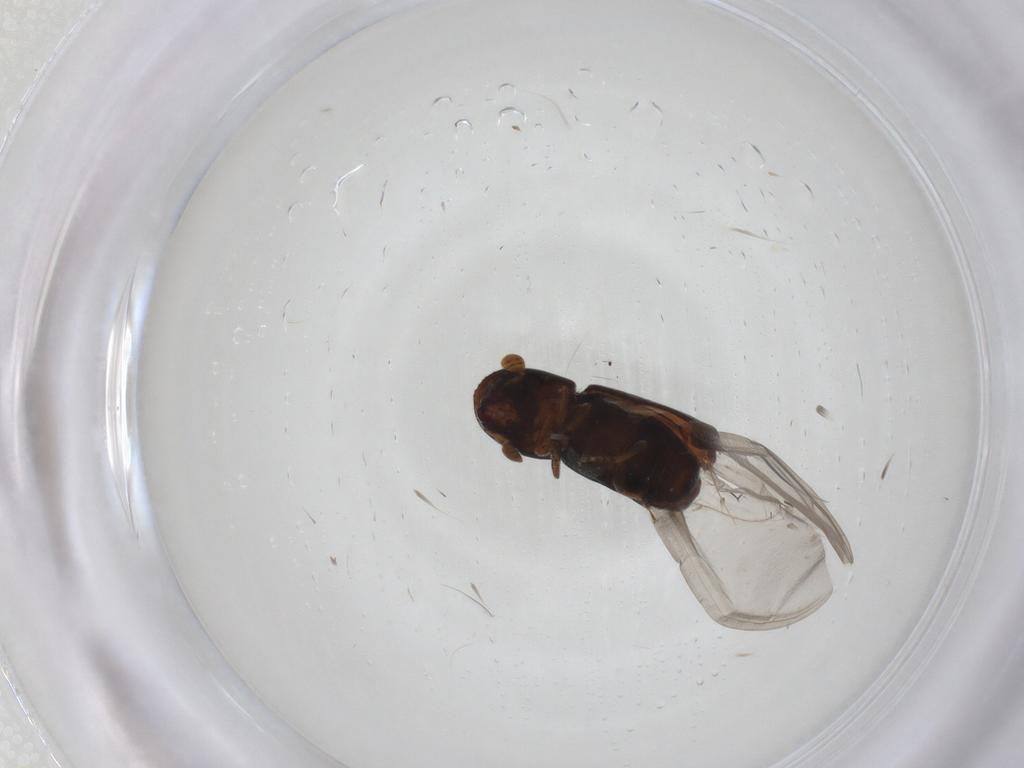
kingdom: Animalia
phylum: Arthropoda
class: Insecta
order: Coleoptera
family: Curculionidae
